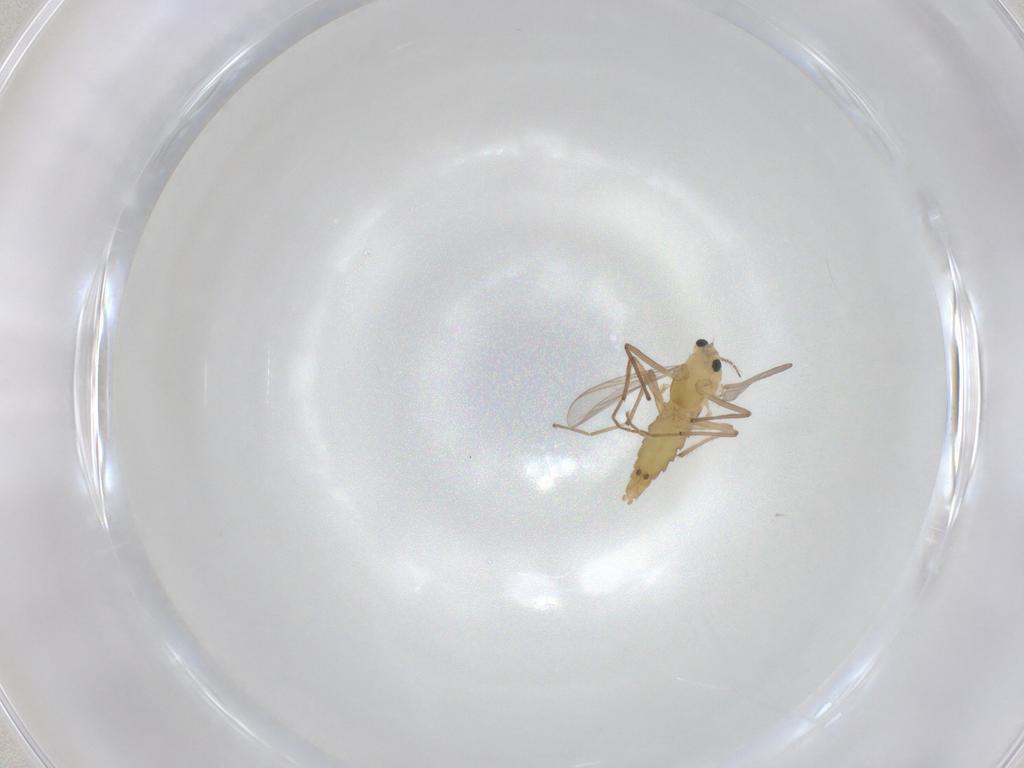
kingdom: Animalia
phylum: Arthropoda
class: Insecta
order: Diptera
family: Chironomidae
